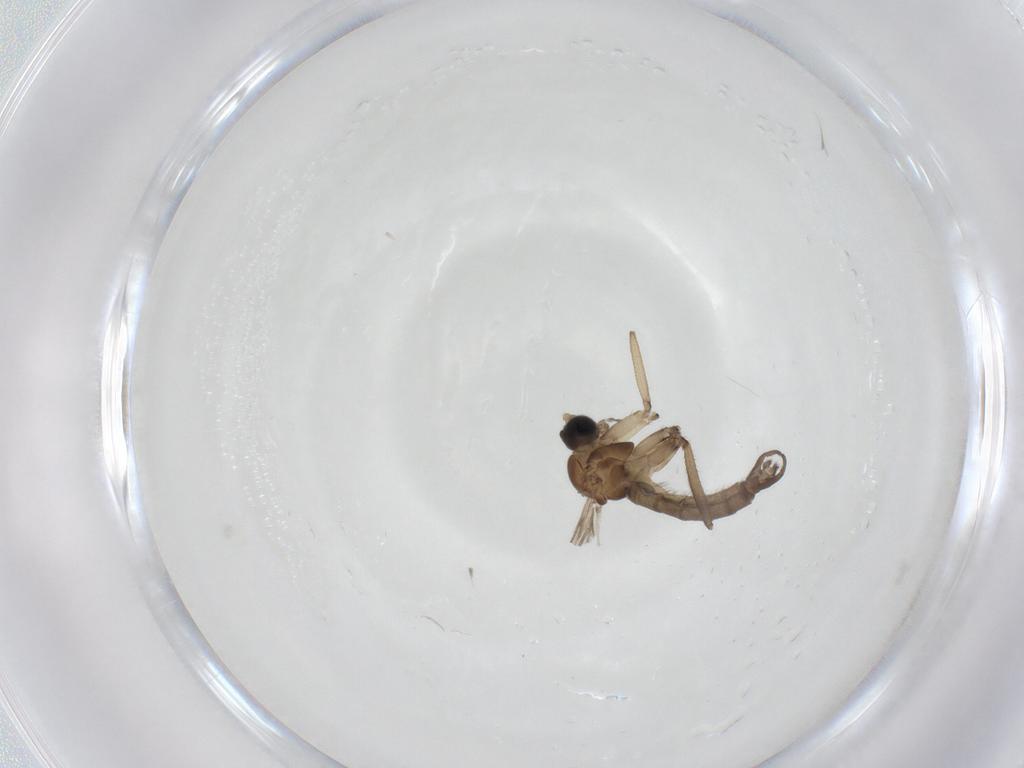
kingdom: Animalia
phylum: Arthropoda
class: Insecta
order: Diptera
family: Sciaridae
